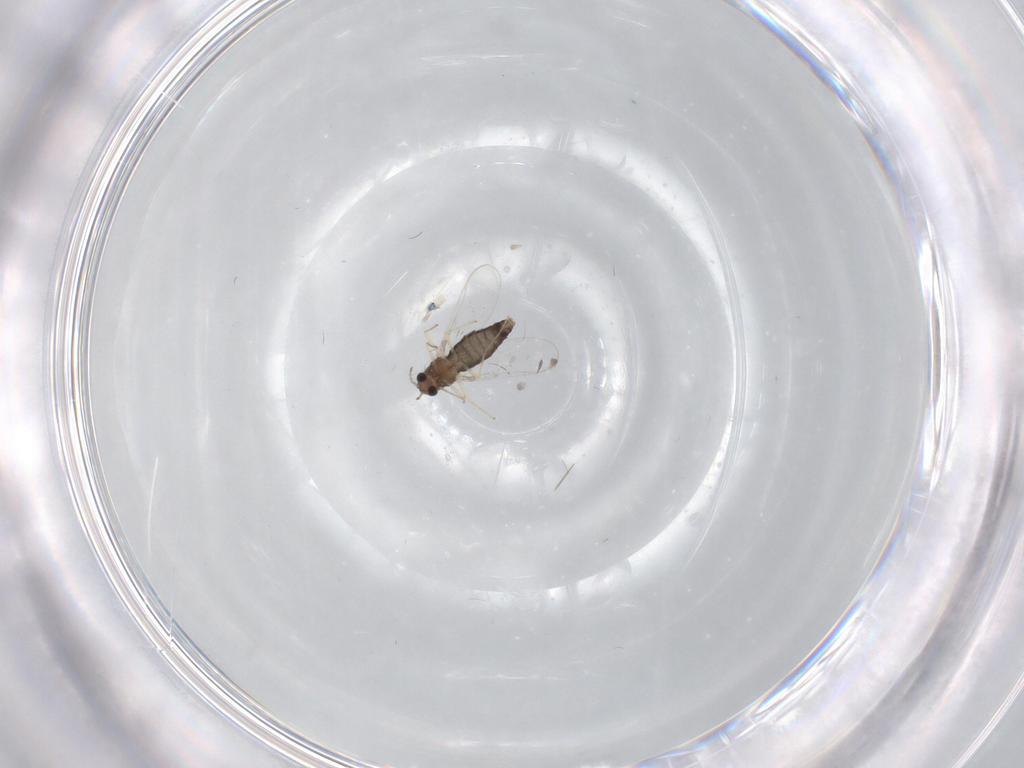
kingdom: Animalia
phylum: Arthropoda
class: Insecta
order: Diptera
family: Chironomidae
